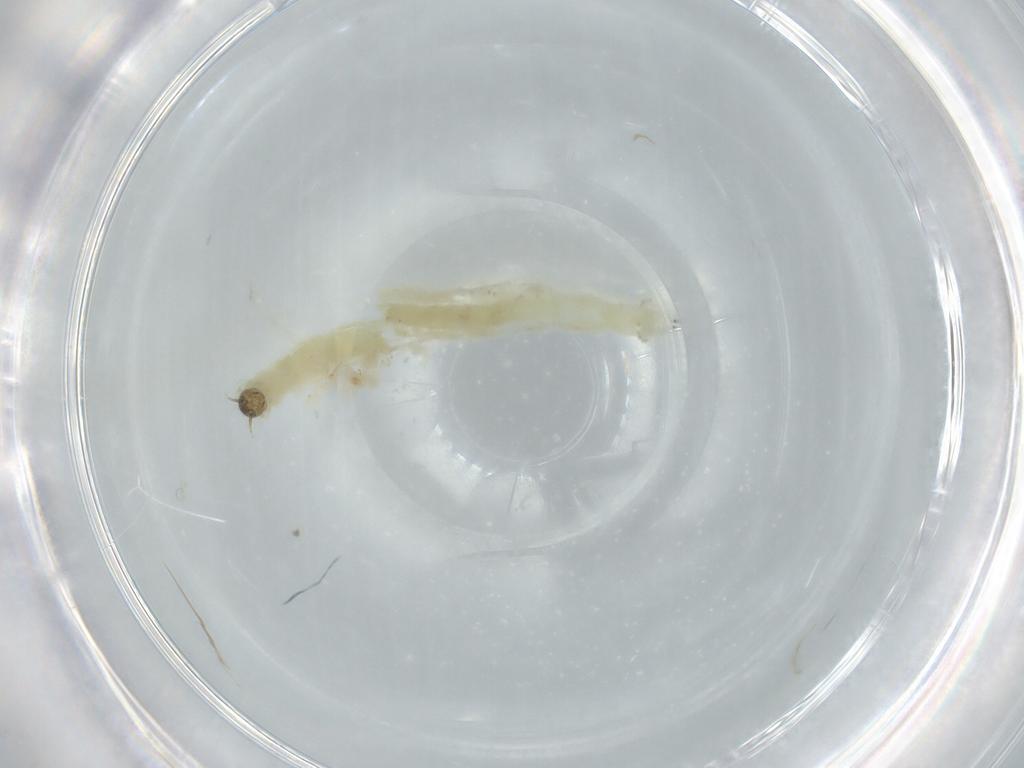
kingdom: Animalia
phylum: Arthropoda
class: Insecta
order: Diptera
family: Chironomidae
